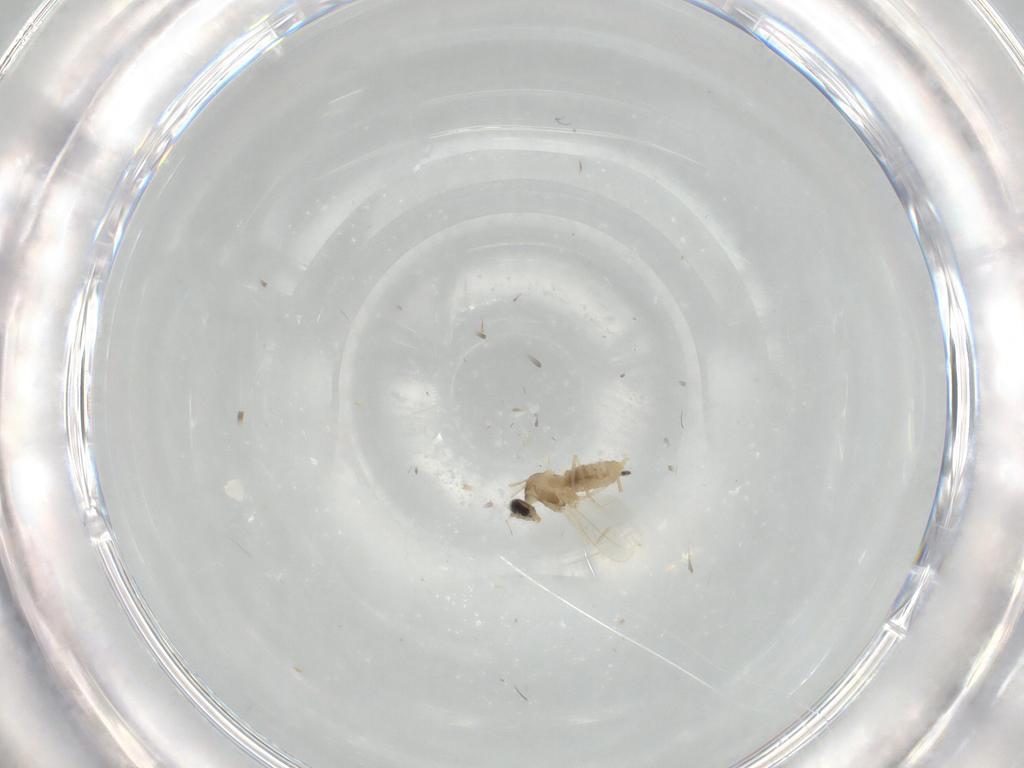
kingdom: Animalia
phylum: Arthropoda
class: Insecta
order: Diptera
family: Cecidomyiidae
